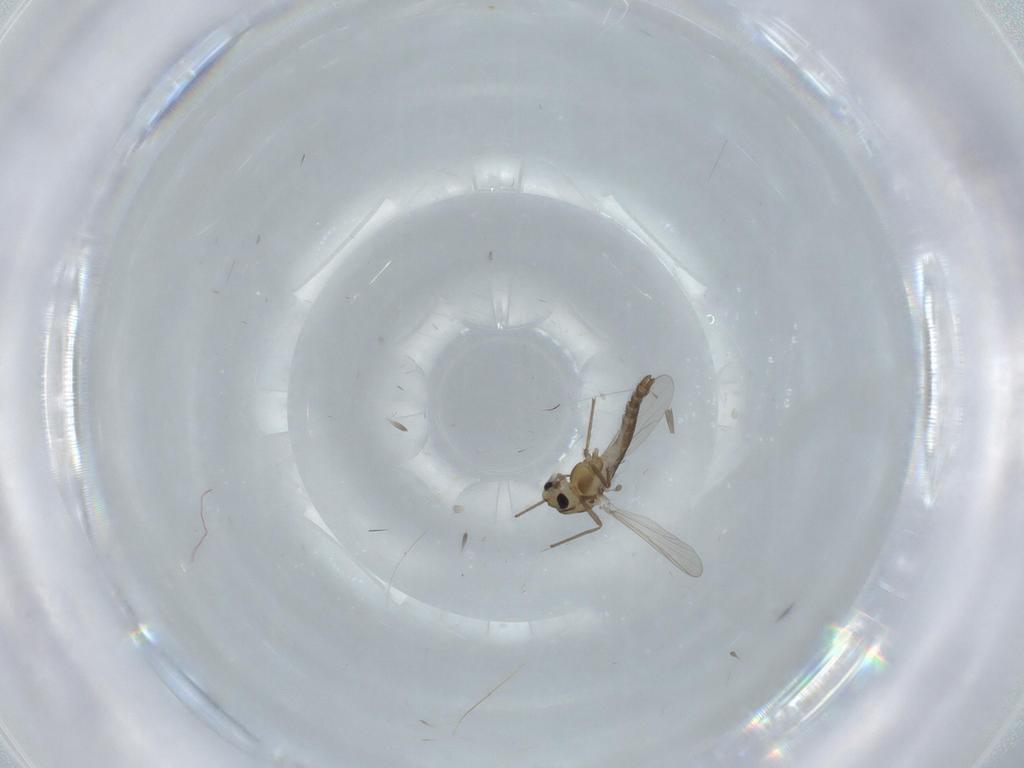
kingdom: Animalia
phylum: Arthropoda
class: Insecta
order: Diptera
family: Chironomidae
